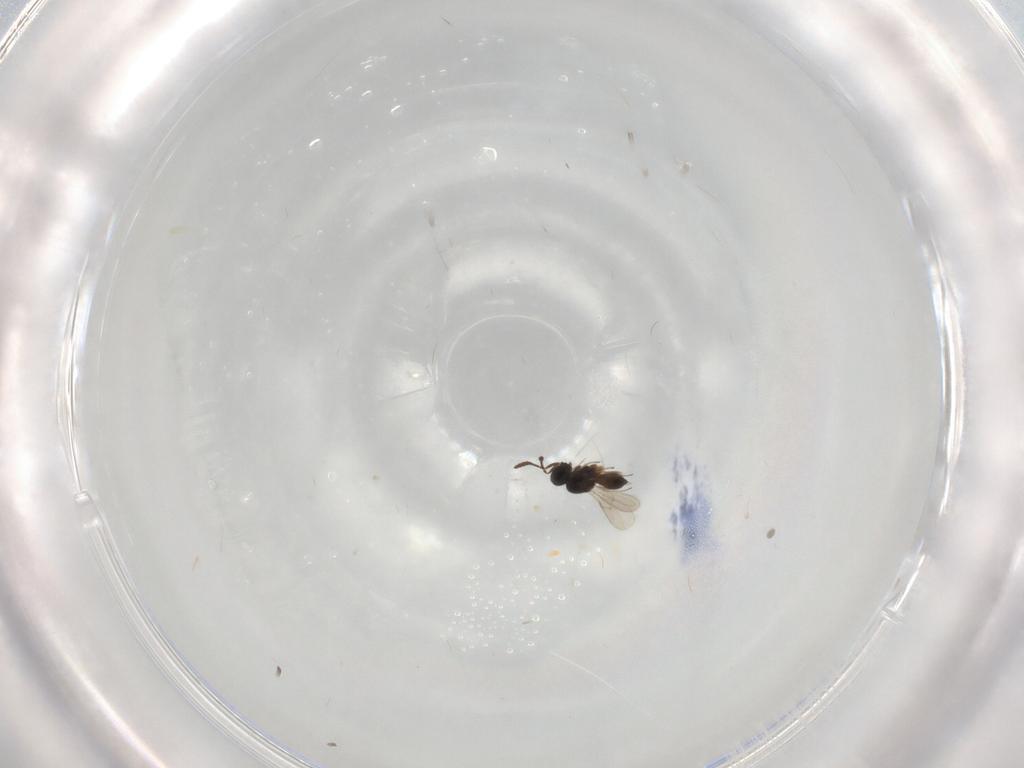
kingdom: Animalia
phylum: Arthropoda
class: Insecta
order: Hymenoptera
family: Scelionidae
